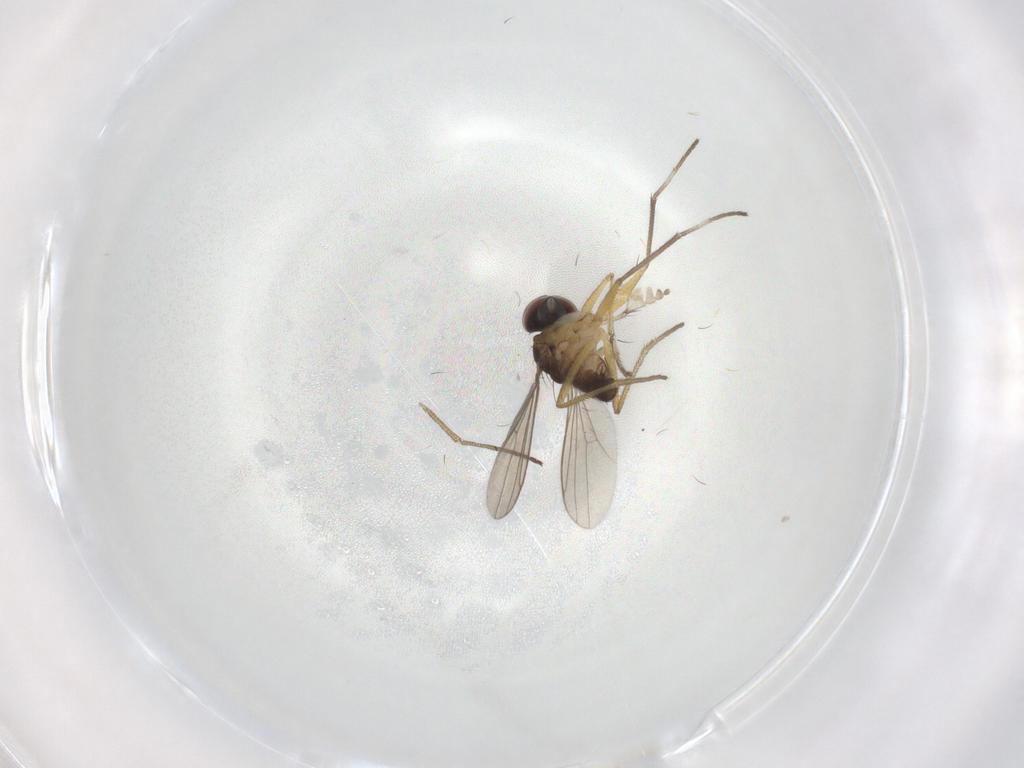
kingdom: Animalia
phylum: Arthropoda
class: Insecta
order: Diptera
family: Dolichopodidae
